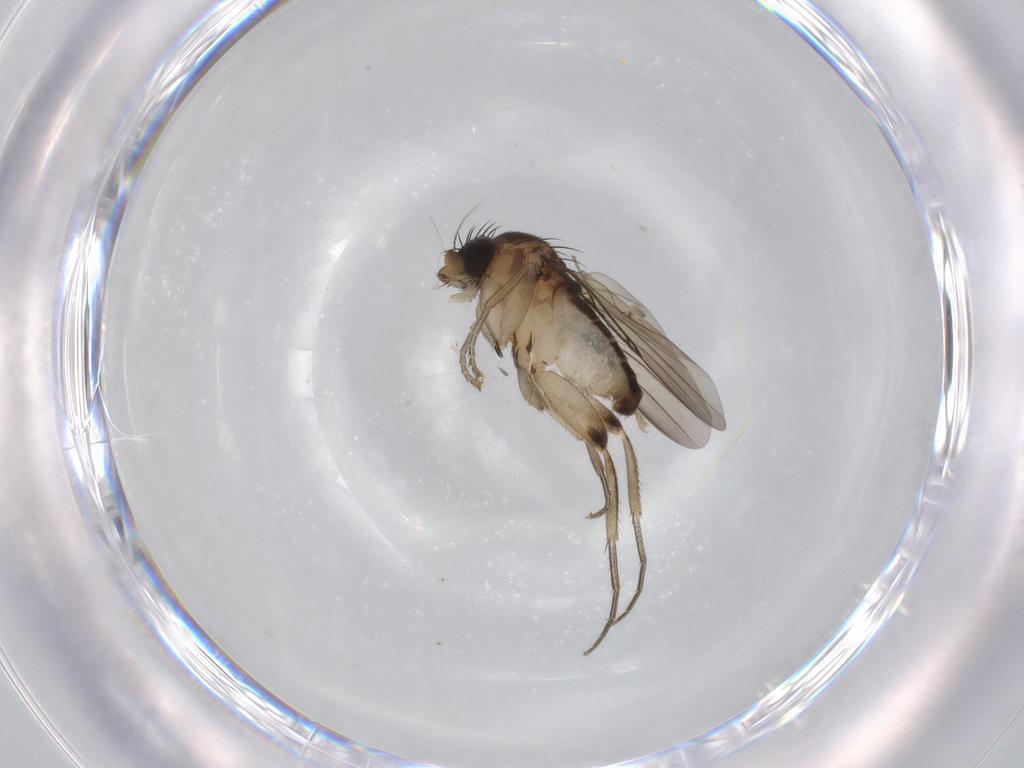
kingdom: Animalia
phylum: Arthropoda
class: Insecta
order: Diptera
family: Phoridae
